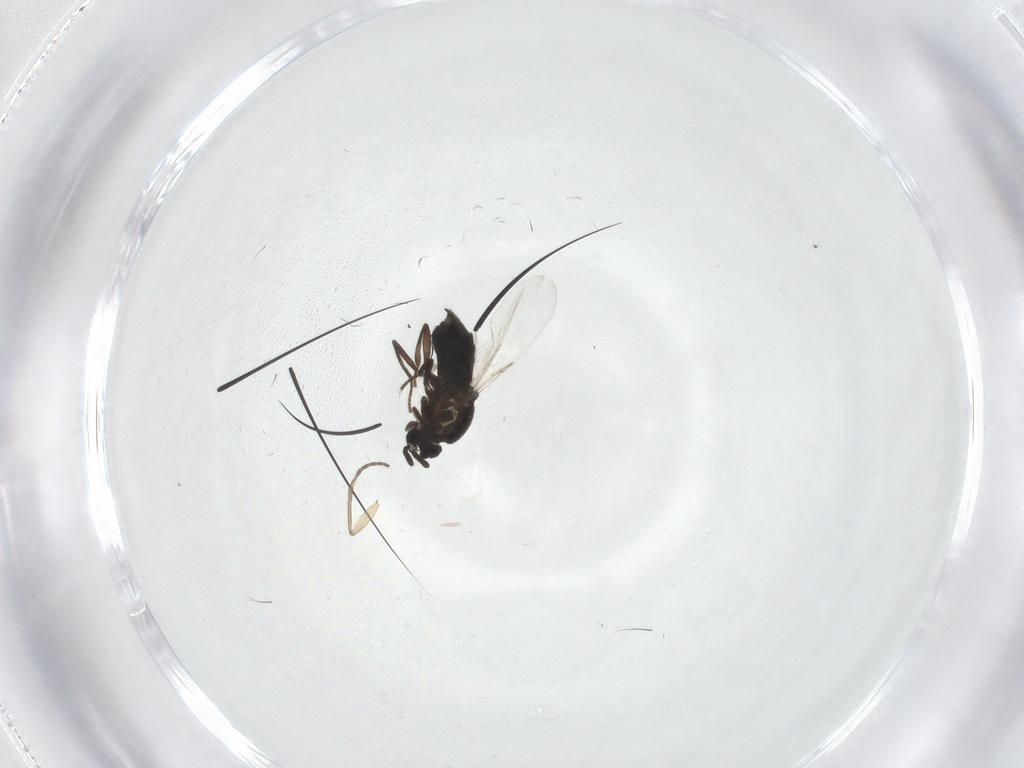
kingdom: Animalia
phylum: Arthropoda
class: Insecta
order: Diptera
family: Scatopsidae
